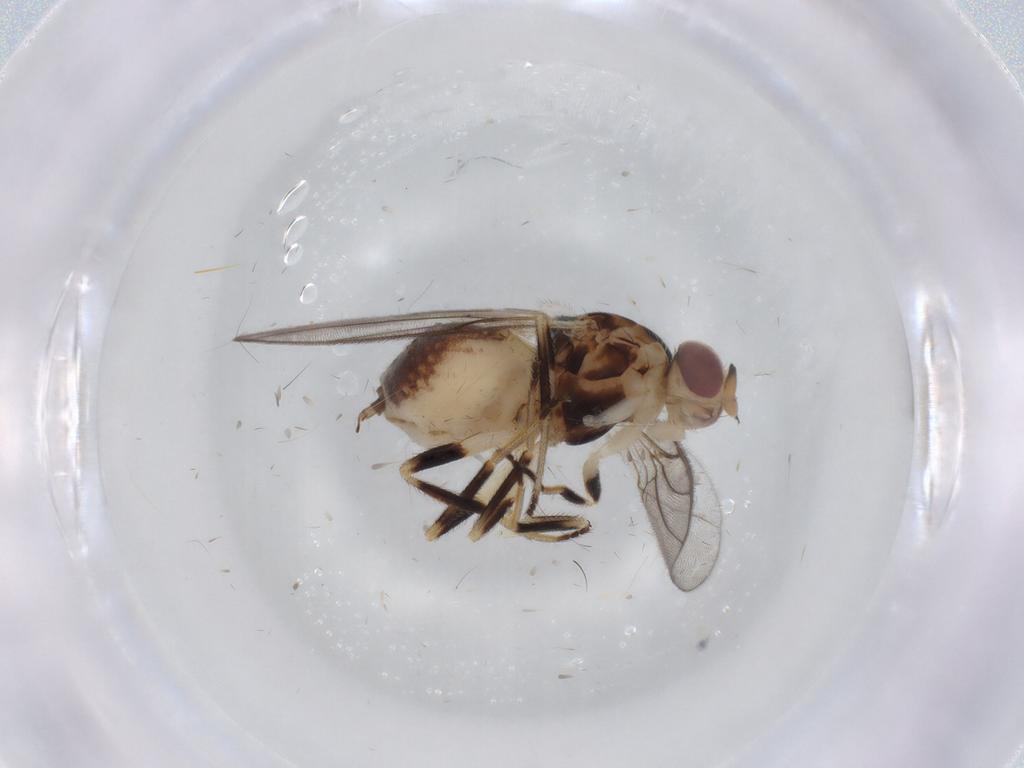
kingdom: Animalia
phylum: Arthropoda
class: Insecta
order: Diptera
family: Chloropidae
